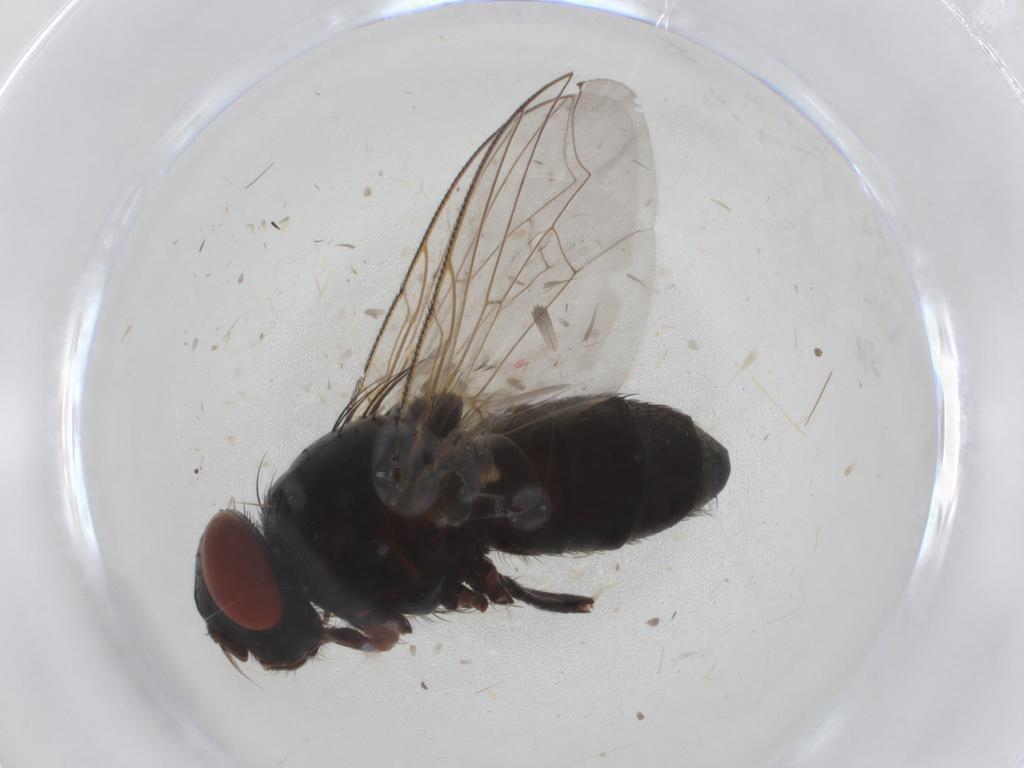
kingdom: Animalia
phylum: Arthropoda
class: Insecta
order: Diptera
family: Sarcophagidae
